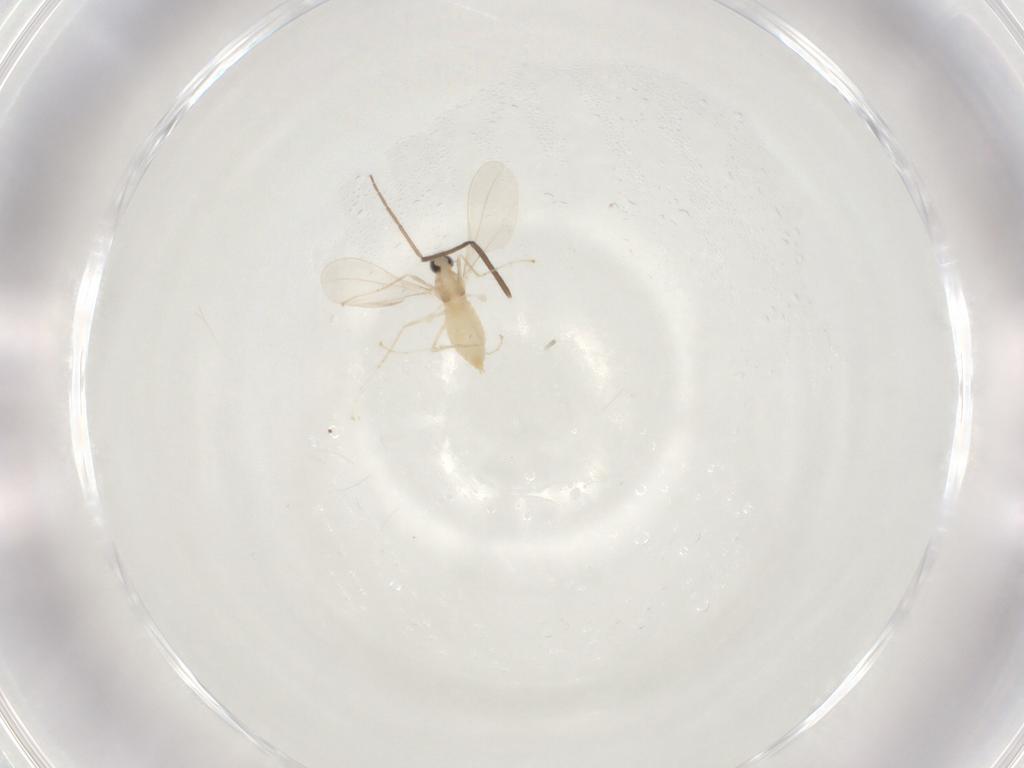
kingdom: Animalia
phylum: Arthropoda
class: Insecta
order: Diptera
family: Cecidomyiidae
